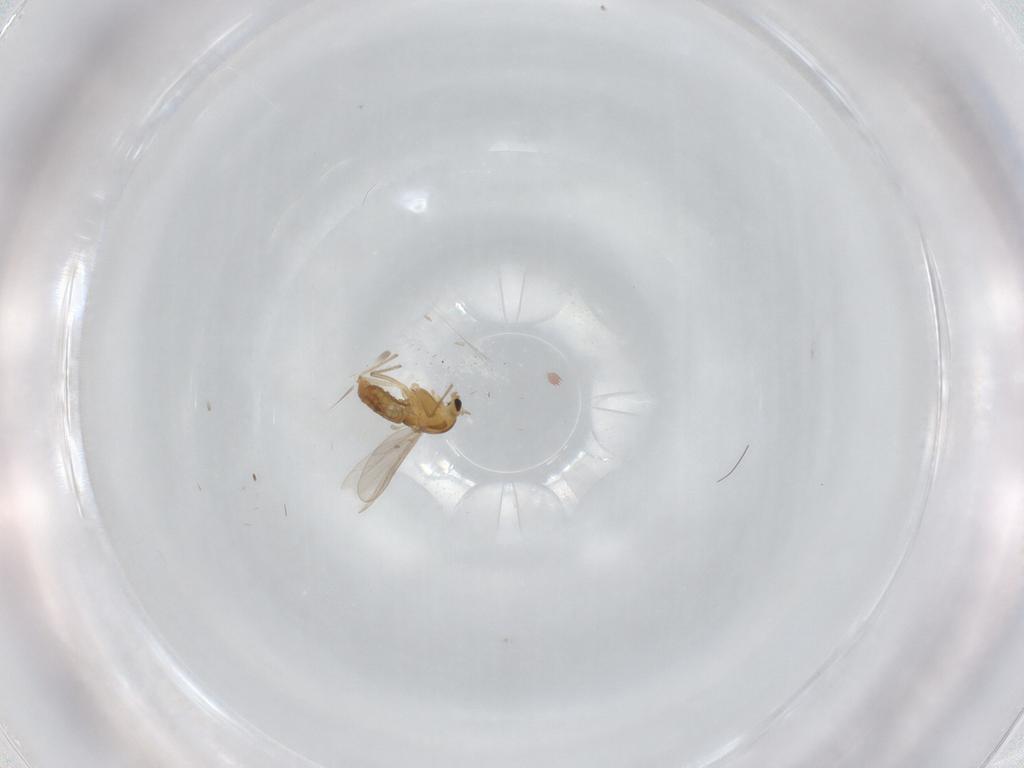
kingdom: Animalia
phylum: Arthropoda
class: Insecta
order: Diptera
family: Chironomidae
